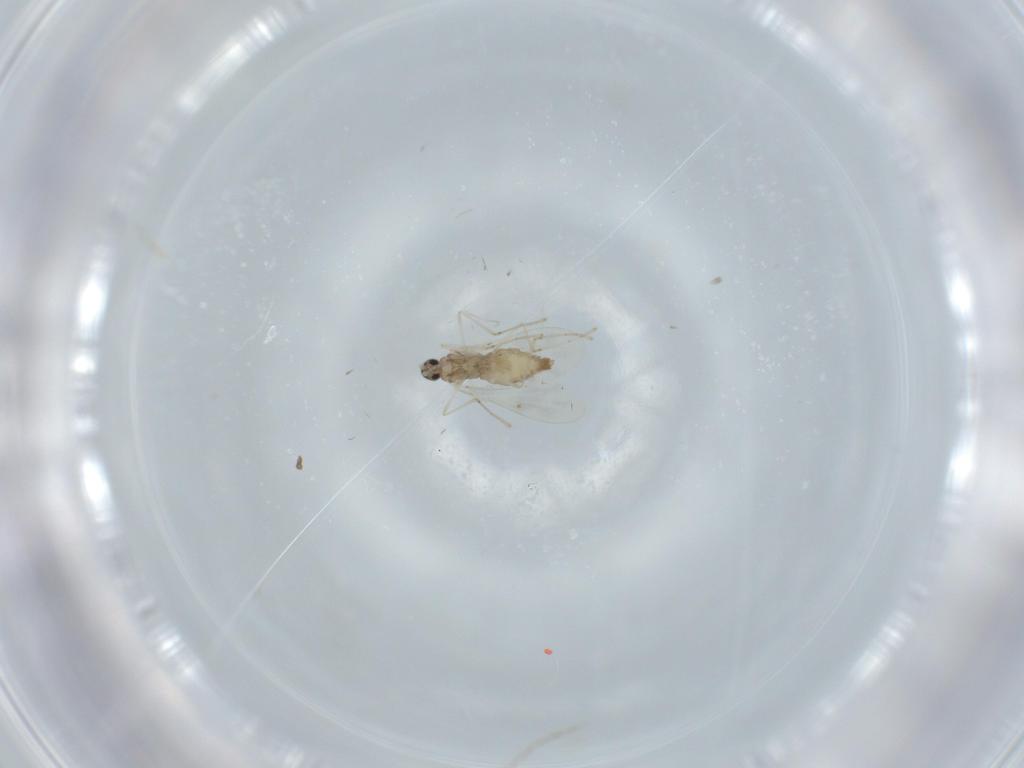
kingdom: Animalia
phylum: Arthropoda
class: Insecta
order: Diptera
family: Cecidomyiidae
